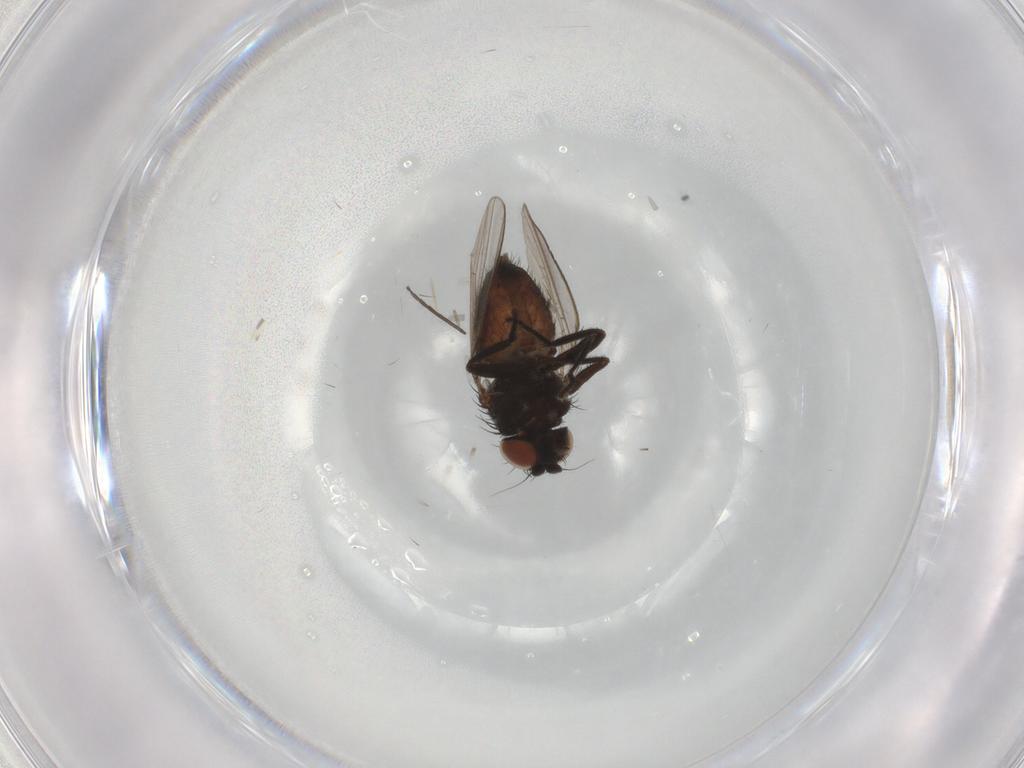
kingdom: Animalia
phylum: Arthropoda
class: Insecta
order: Diptera
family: Milichiidae
